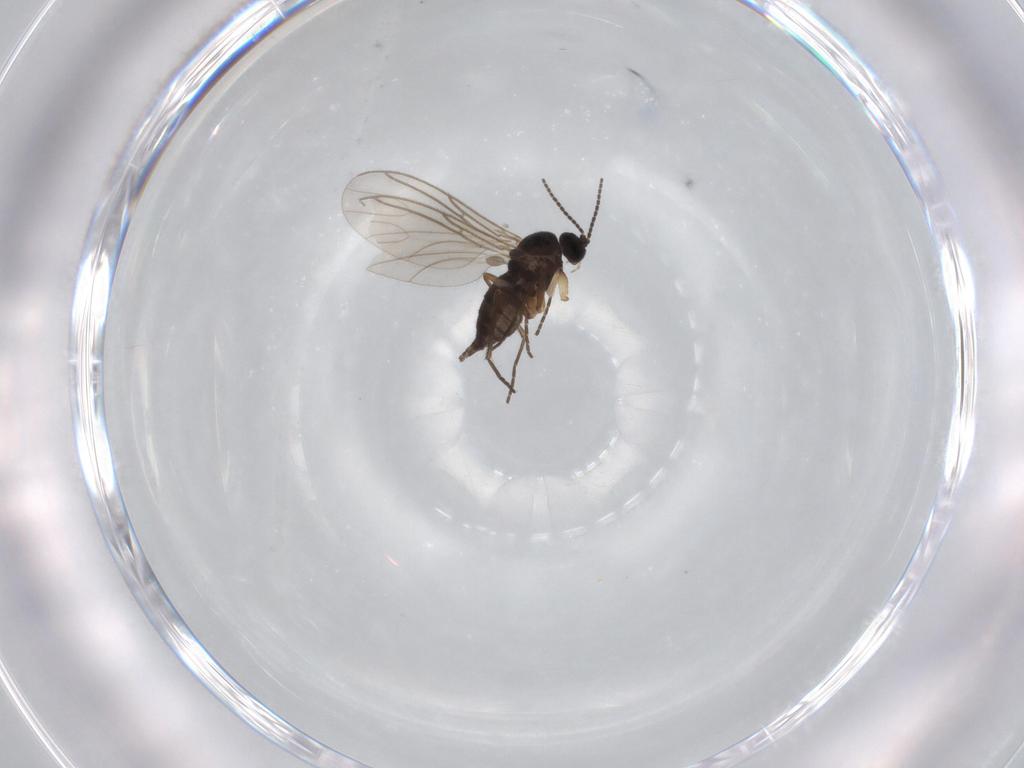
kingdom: Animalia
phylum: Arthropoda
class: Insecta
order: Diptera
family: Sciaridae
